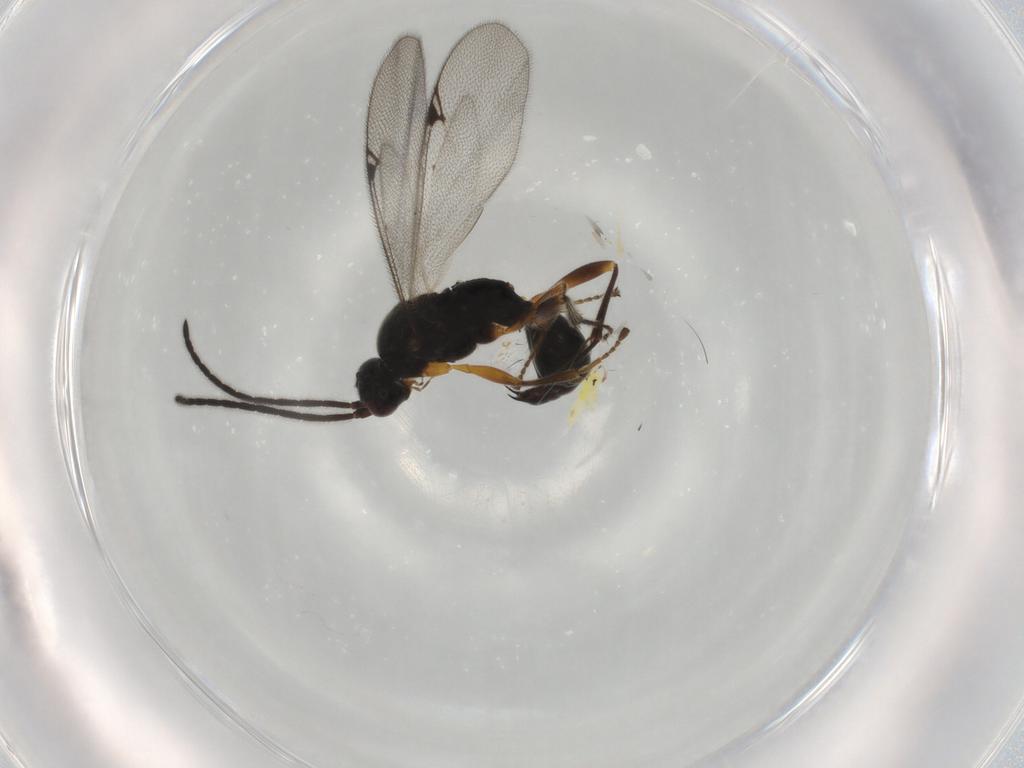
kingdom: Animalia
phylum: Arthropoda
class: Insecta
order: Hymenoptera
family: Proctotrupidae
